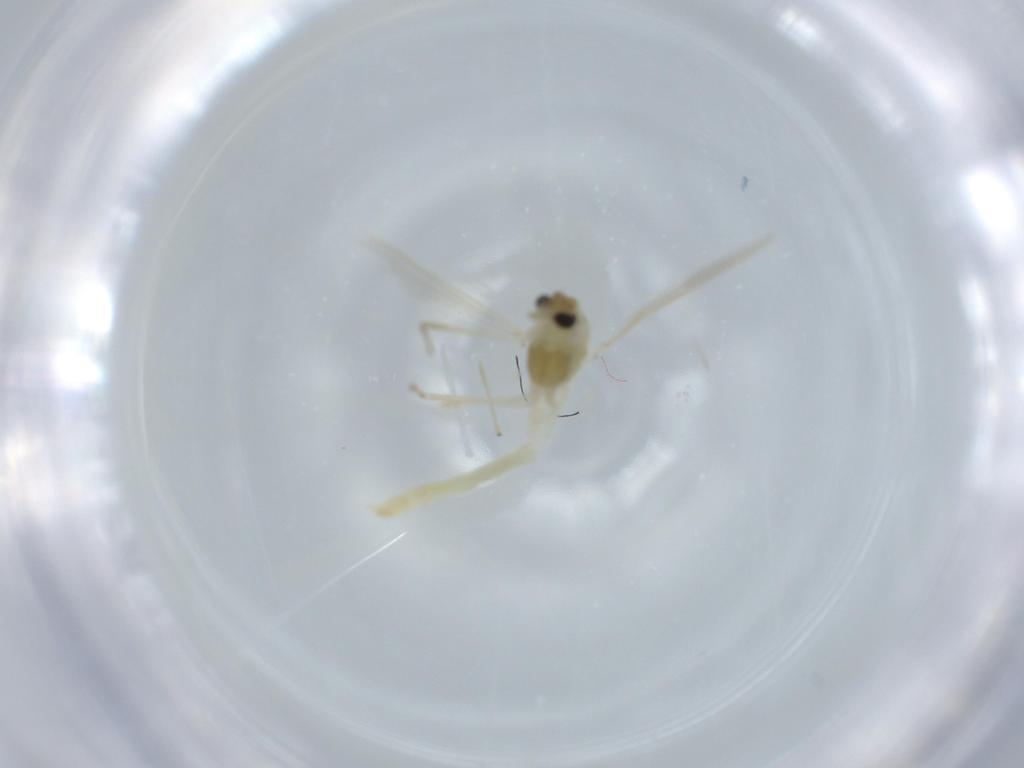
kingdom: Animalia
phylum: Arthropoda
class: Insecta
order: Diptera
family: Chironomidae
